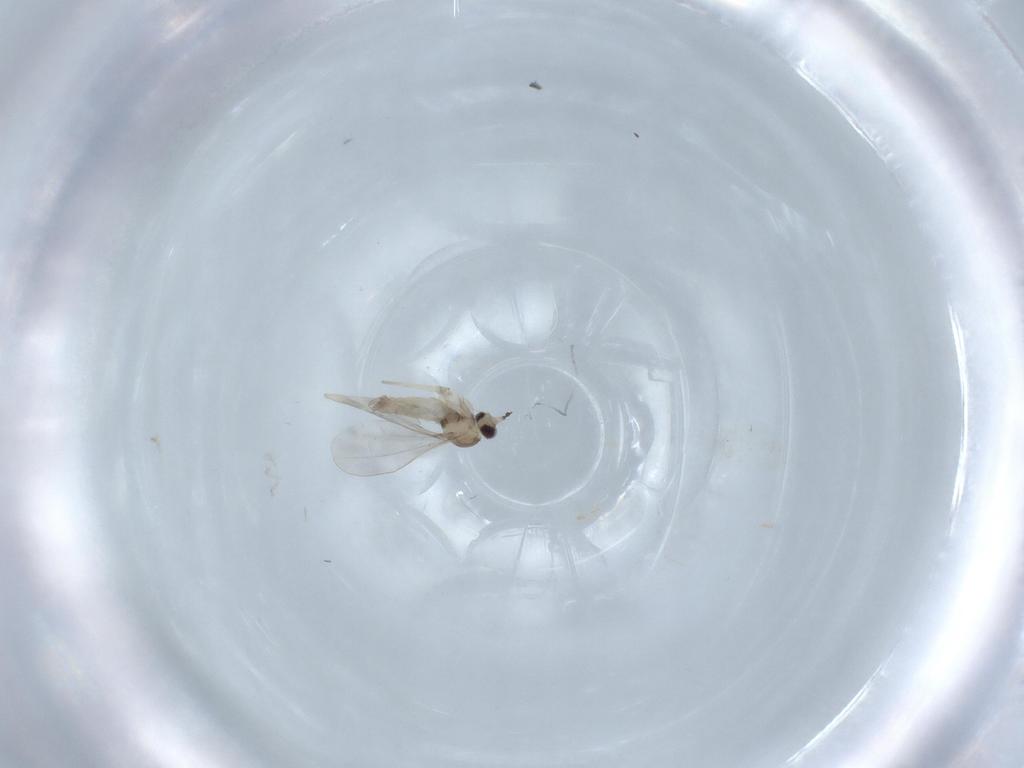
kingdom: Animalia
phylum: Arthropoda
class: Insecta
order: Diptera
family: Cecidomyiidae
